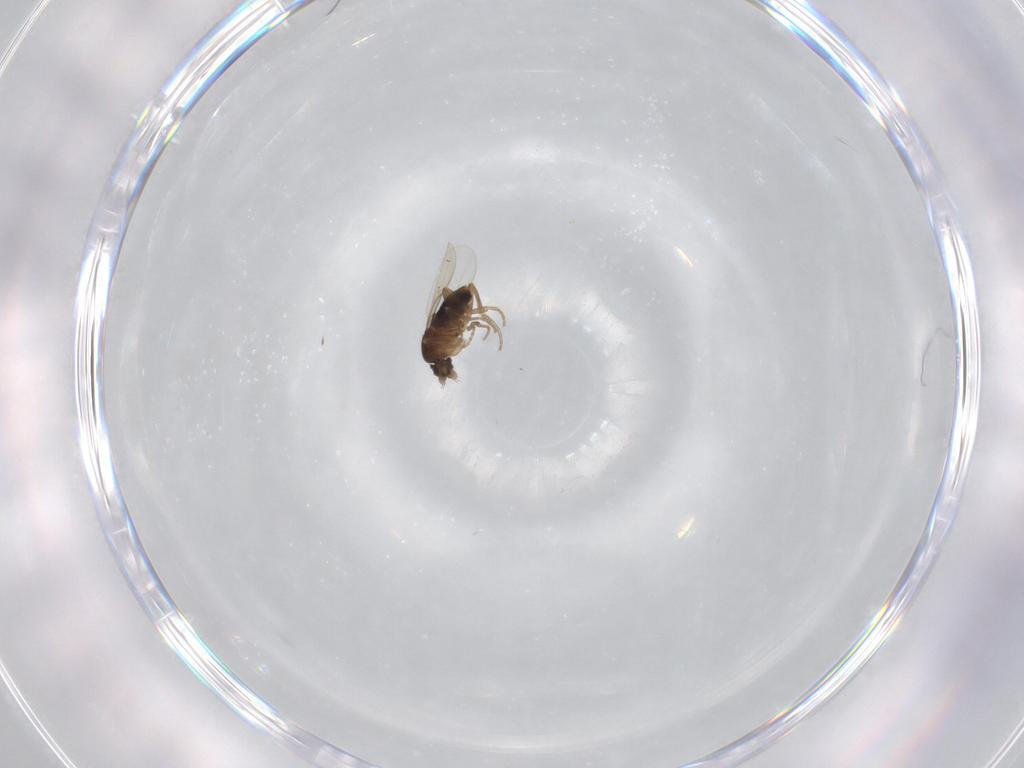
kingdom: Animalia
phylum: Arthropoda
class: Insecta
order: Diptera
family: Phoridae
